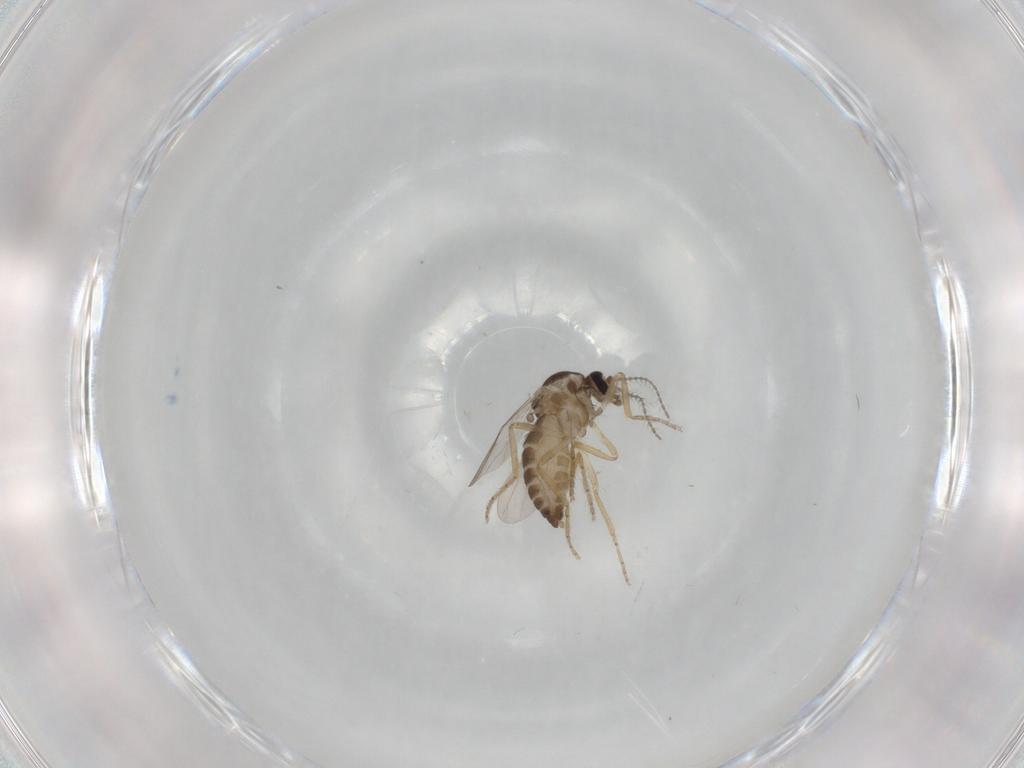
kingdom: Animalia
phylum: Arthropoda
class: Insecta
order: Diptera
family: Ceratopogonidae
